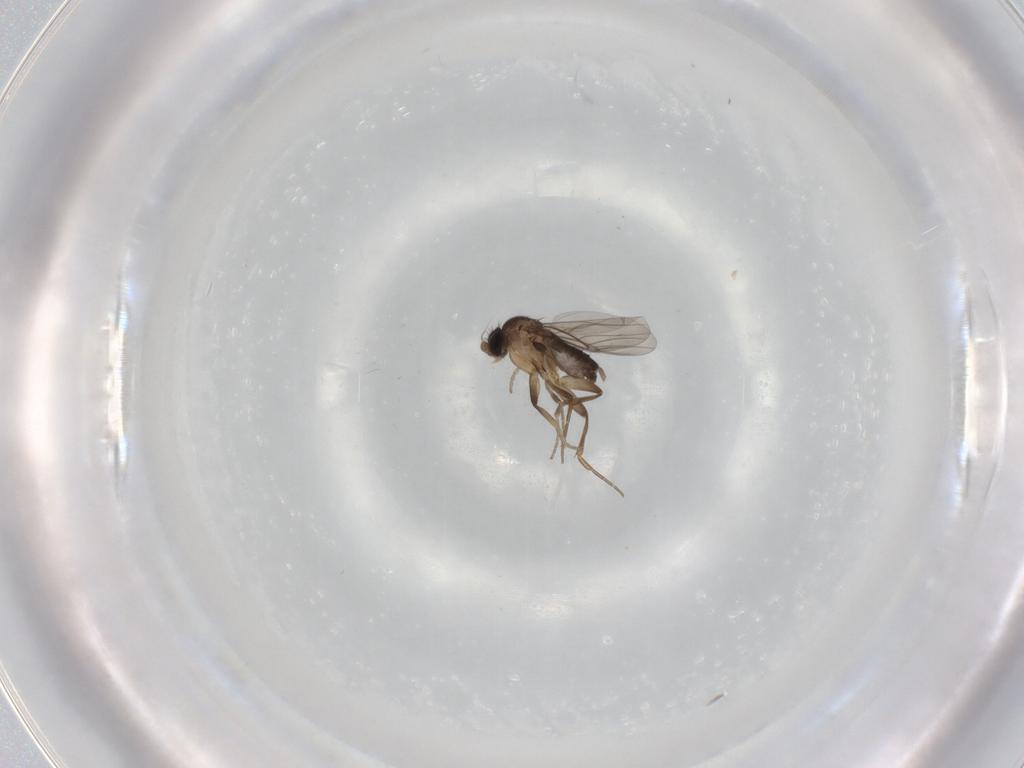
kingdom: Animalia
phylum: Arthropoda
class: Insecta
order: Diptera
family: Phoridae
